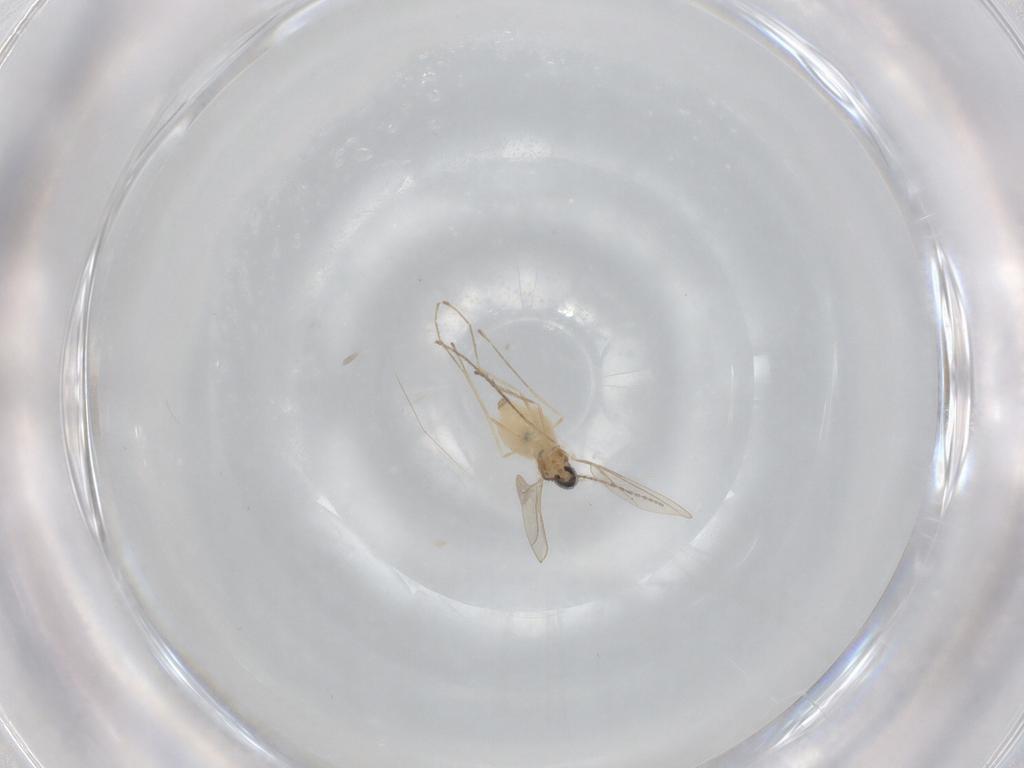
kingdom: Animalia
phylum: Arthropoda
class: Insecta
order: Diptera
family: Cecidomyiidae
